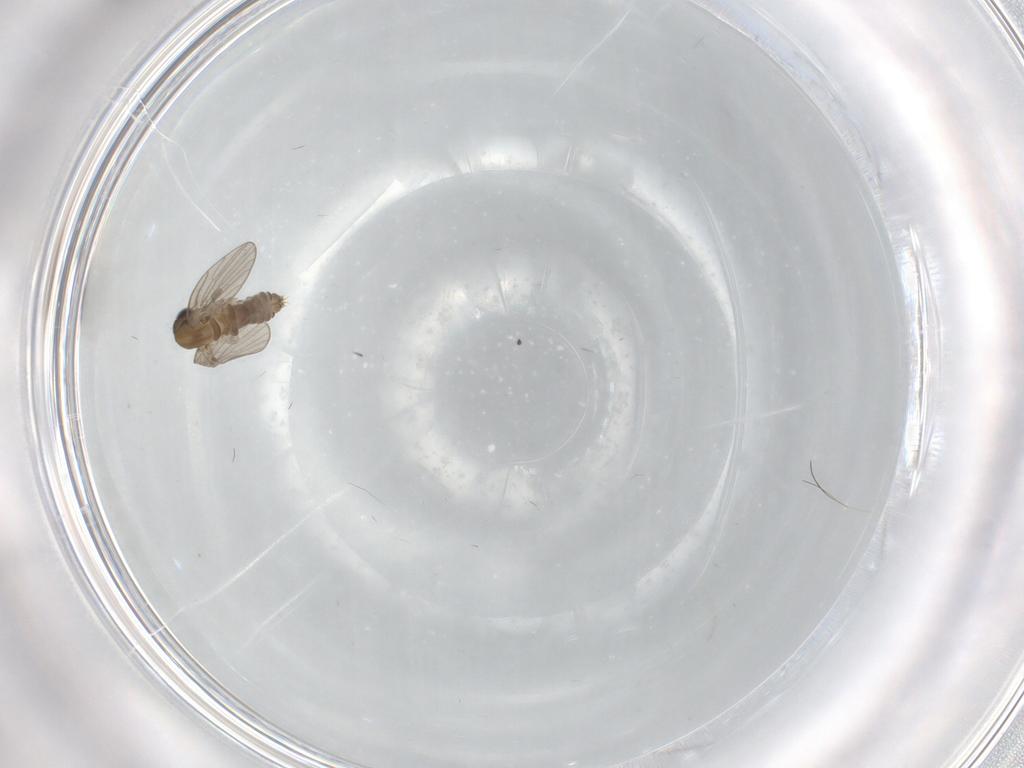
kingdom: Animalia
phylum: Arthropoda
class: Insecta
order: Diptera
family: Psychodidae
